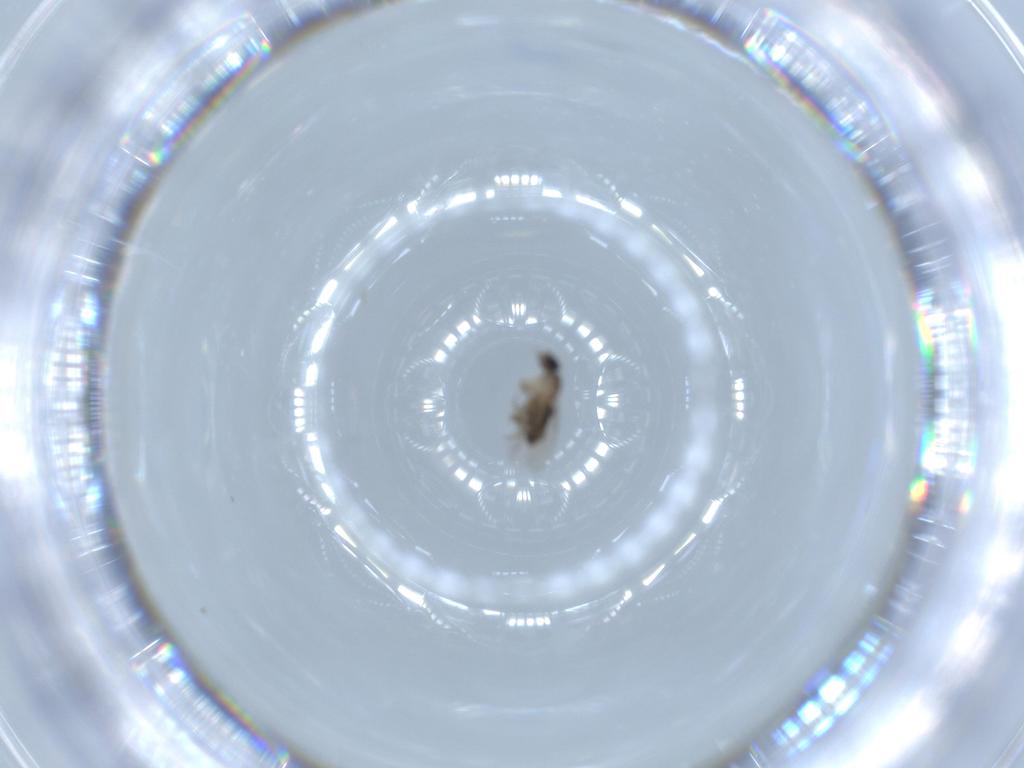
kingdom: Animalia
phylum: Arthropoda
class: Insecta
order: Diptera
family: Phoridae
